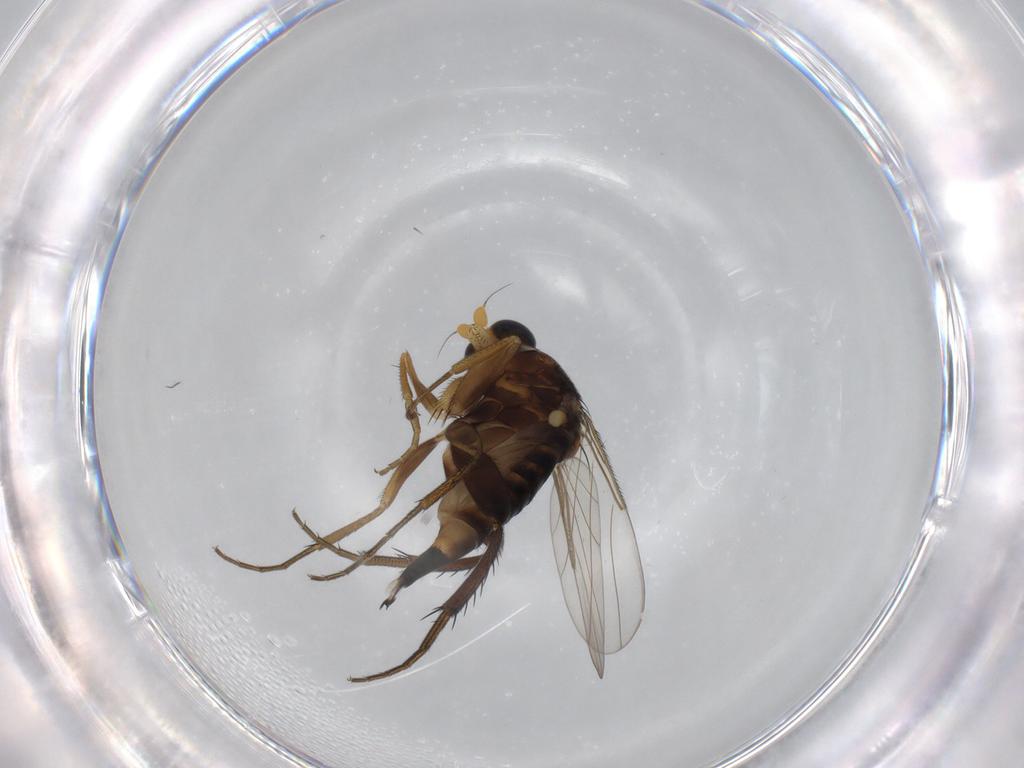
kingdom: Animalia
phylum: Arthropoda
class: Insecta
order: Diptera
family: Phoridae
